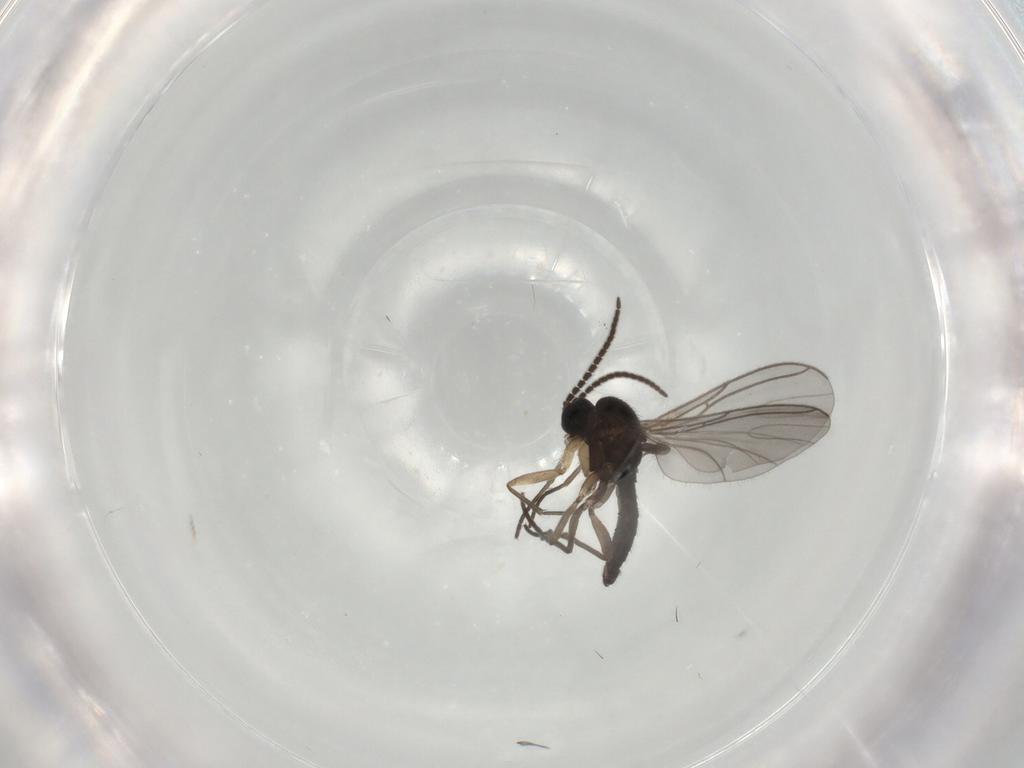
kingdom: Animalia
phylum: Arthropoda
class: Insecta
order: Diptera
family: Sciaridae
